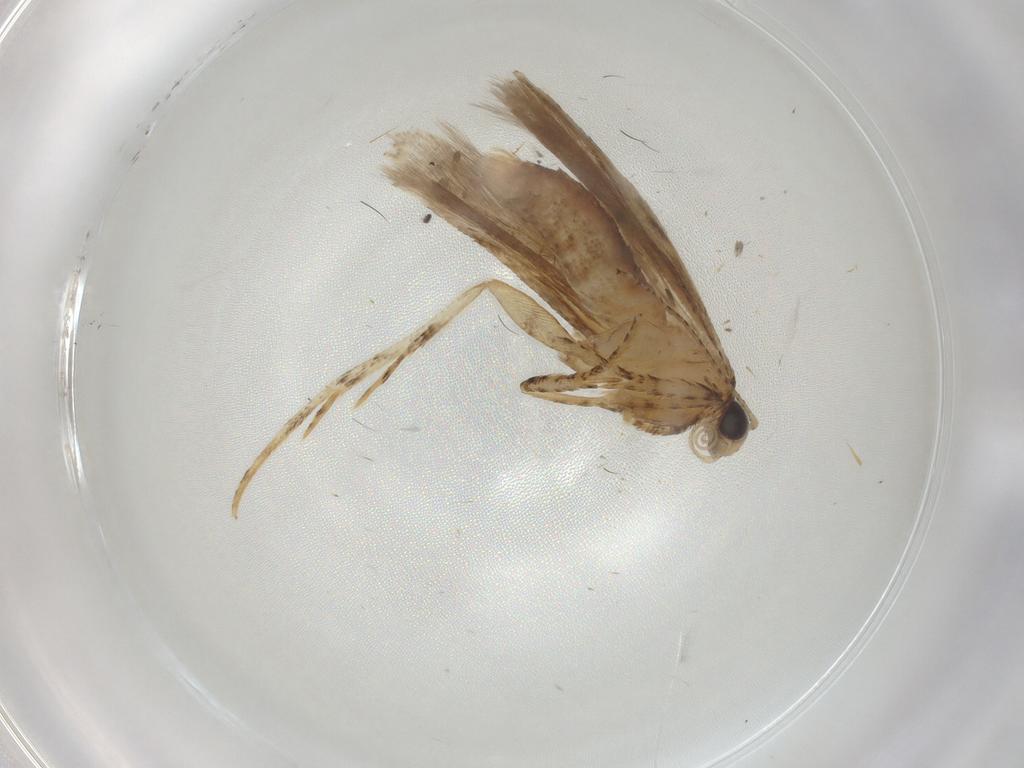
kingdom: Animalia
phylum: Arthropoda
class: Insecta
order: Lepidoptera
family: Gelechiidae
